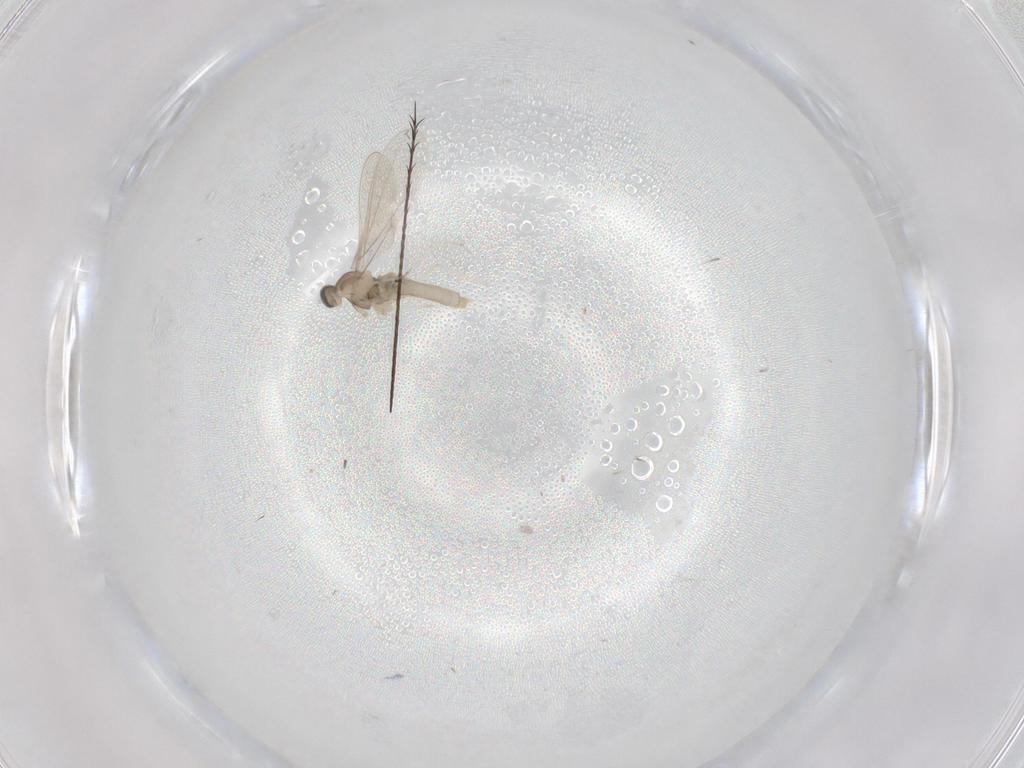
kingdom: Animalia
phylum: Arthropoda
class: Insecta
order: Diptera
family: Cecidomyiidae
